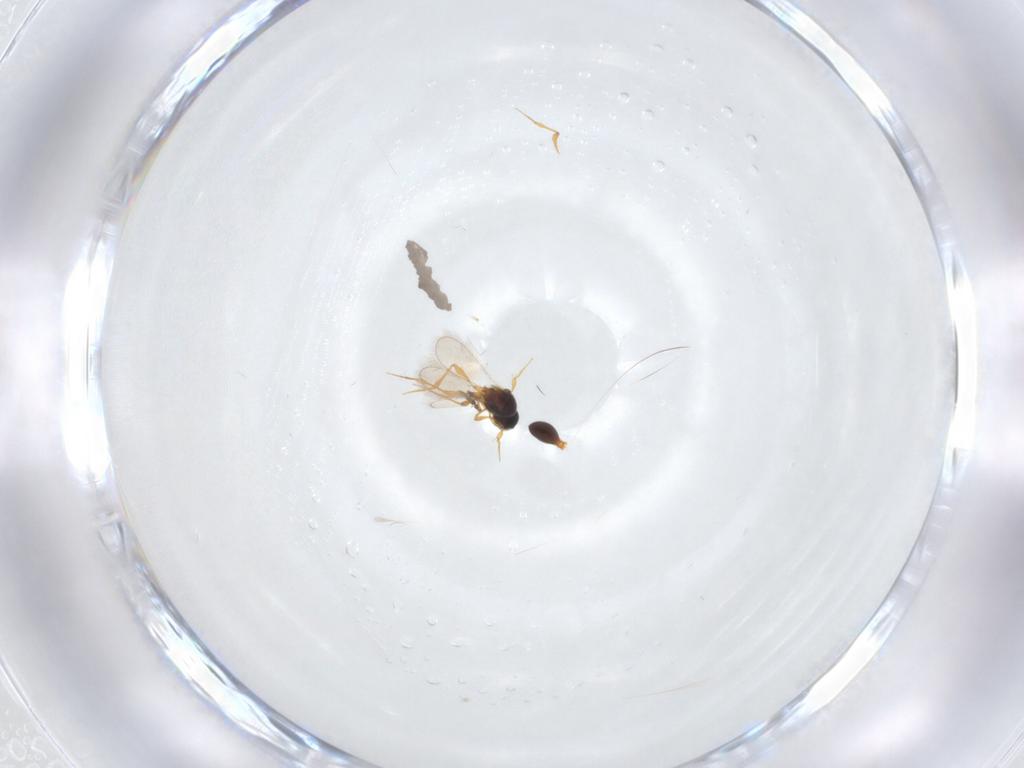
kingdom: Animalia
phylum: Arthropoda
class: Insecta
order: Hymenoptera
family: Platygastridae
